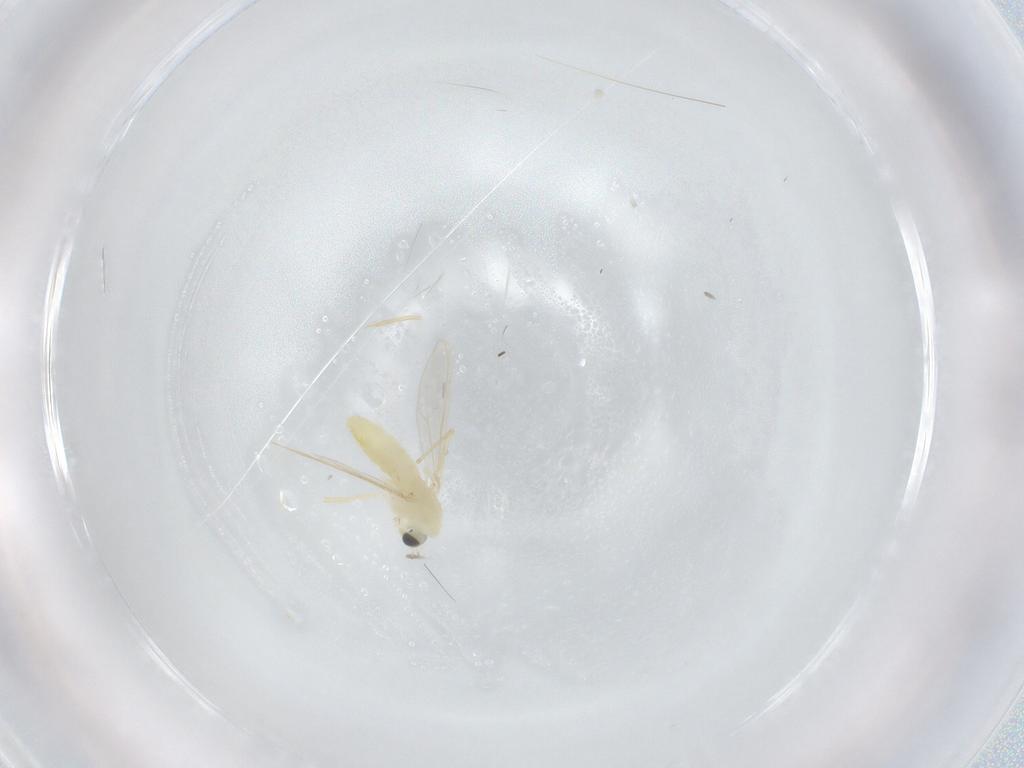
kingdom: Animalia
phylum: Arthropoda
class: Insecta
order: Diptera
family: Chironomidae
